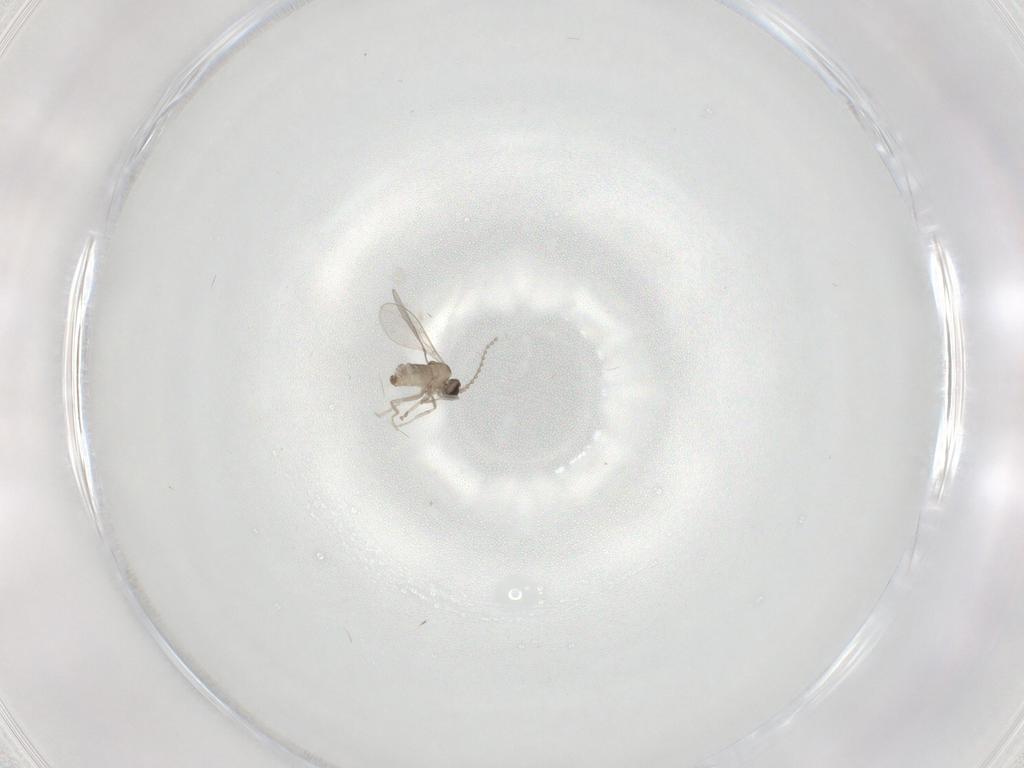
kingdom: Animalia
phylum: Arthropoda
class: Insecta
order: Diptera
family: Cecidomyiidae
